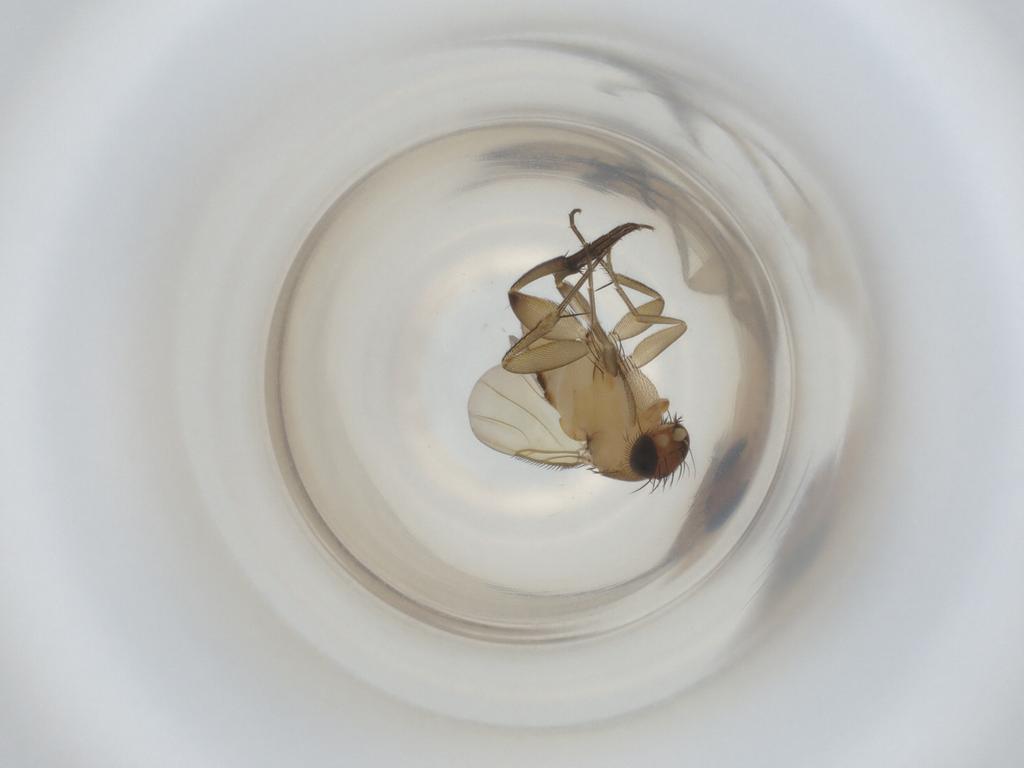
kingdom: Animalia
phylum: Arthropoda
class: Insecta
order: Diptera
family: Phoridae
